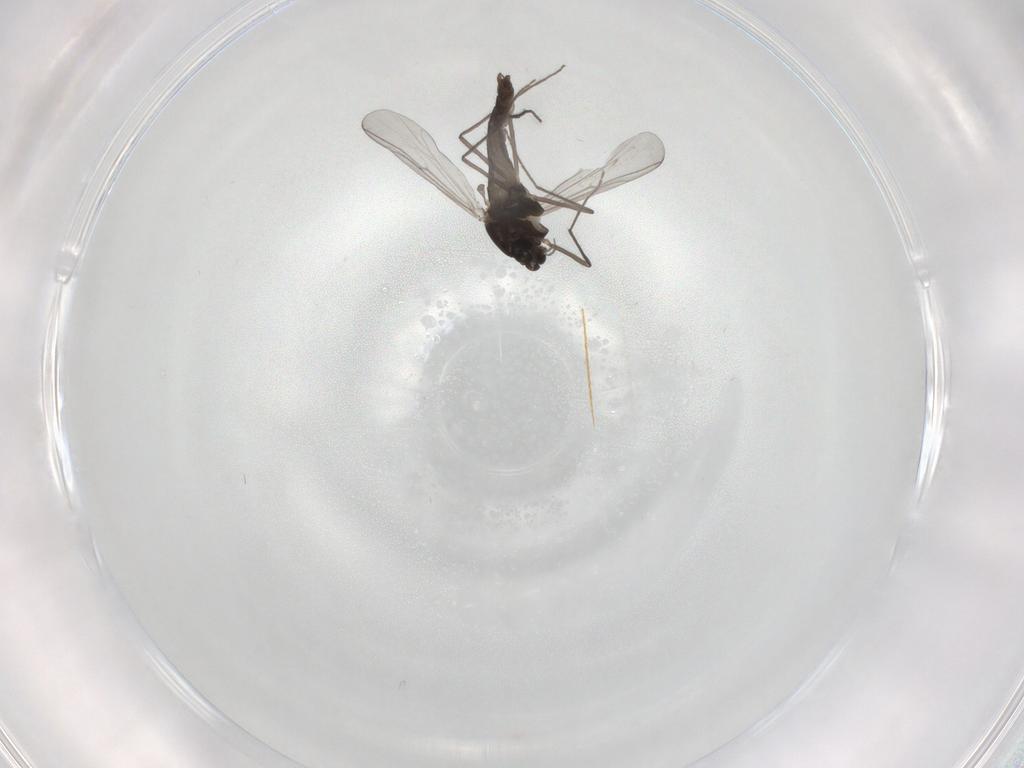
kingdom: Animalia
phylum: Arthropoda
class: Insecta
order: Diptera
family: Chironomidae
